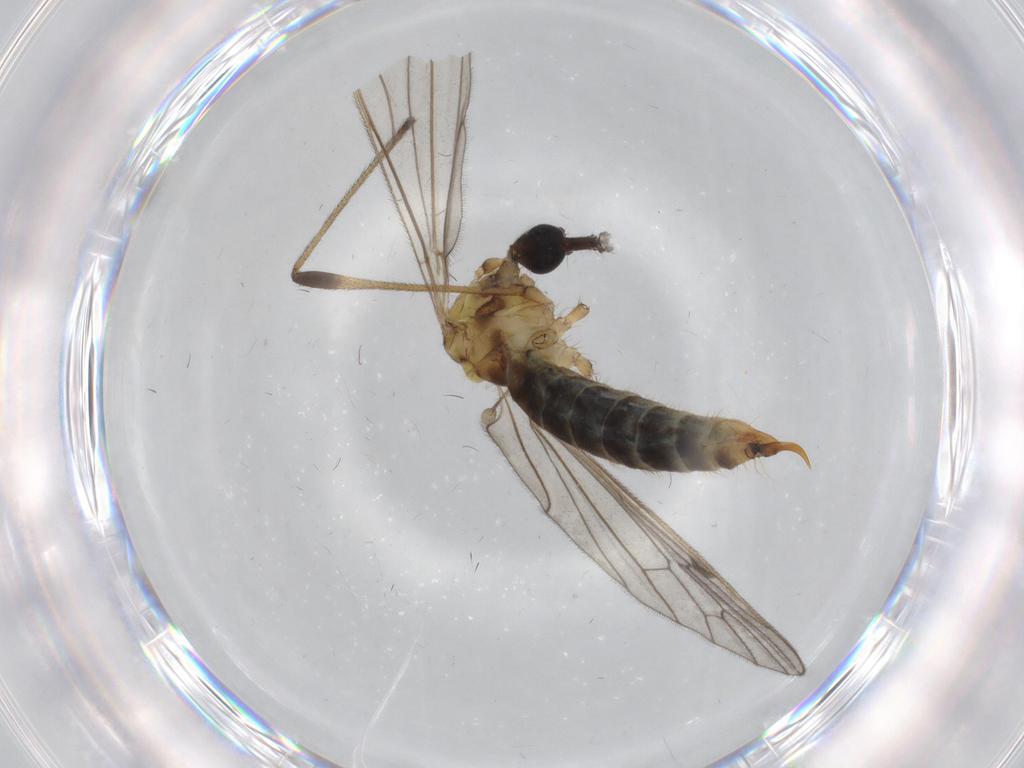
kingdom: Animalia
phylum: Arthropoda
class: Insecta
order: Diptera
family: Limoniidae
